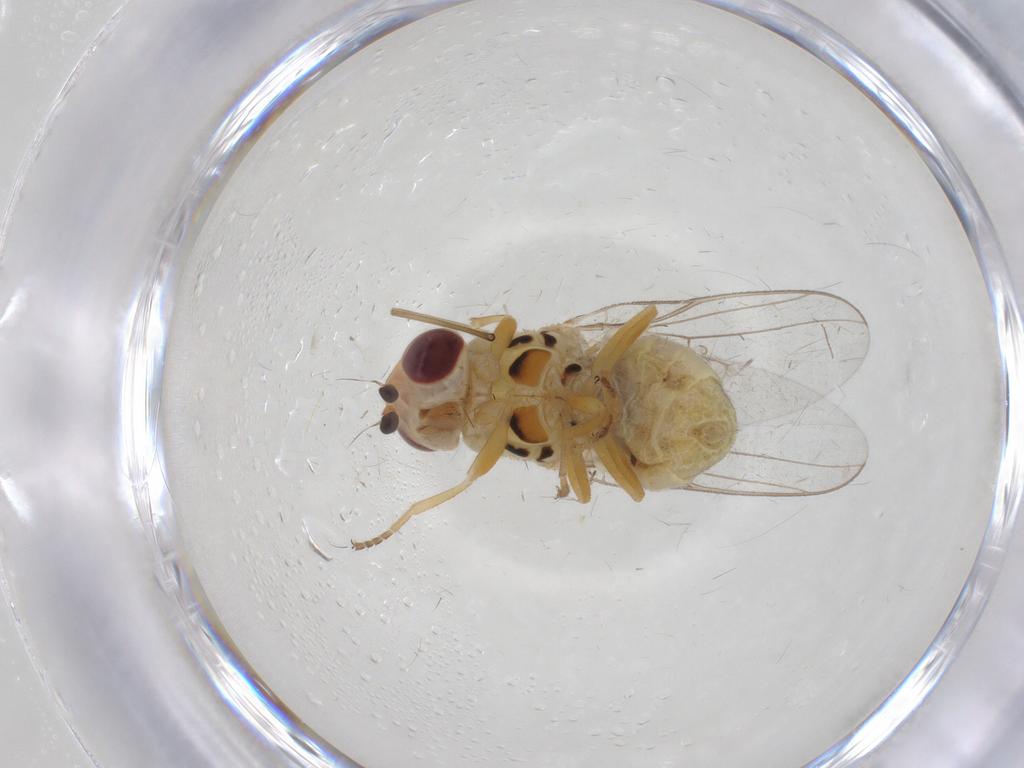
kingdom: Animalia
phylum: Arthropoda
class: Insecta
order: Diptera
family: Chloropidae
